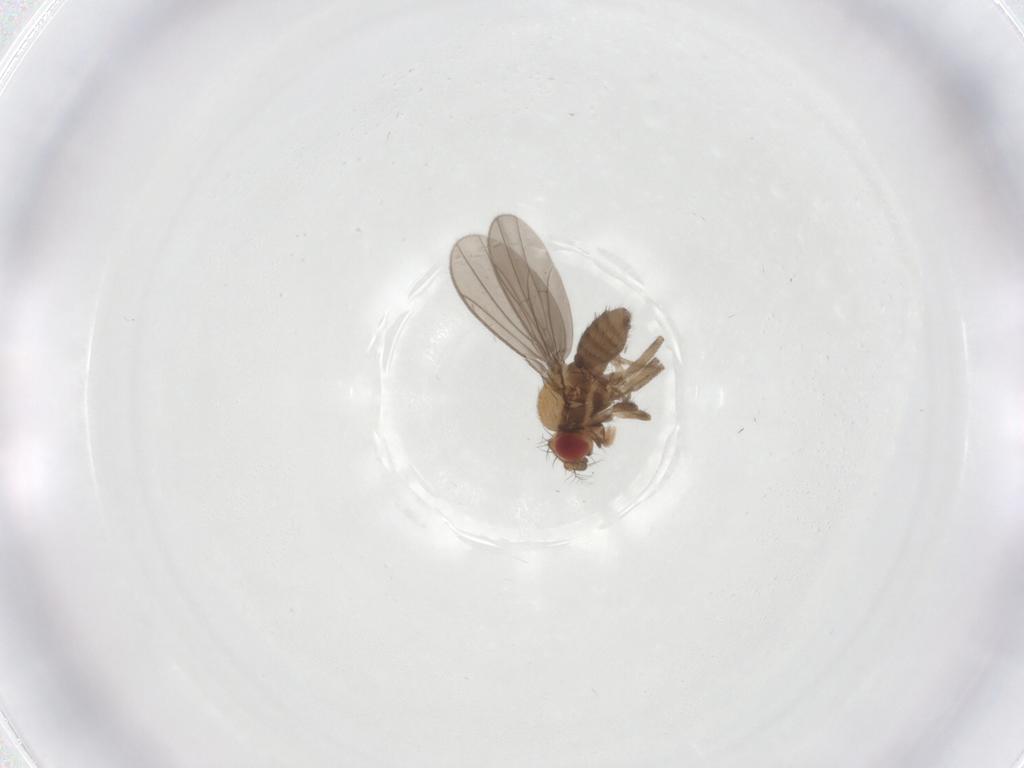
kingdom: Animalia
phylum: Arthropoda
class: Insecta
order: Diptera
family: Drosophilidae
